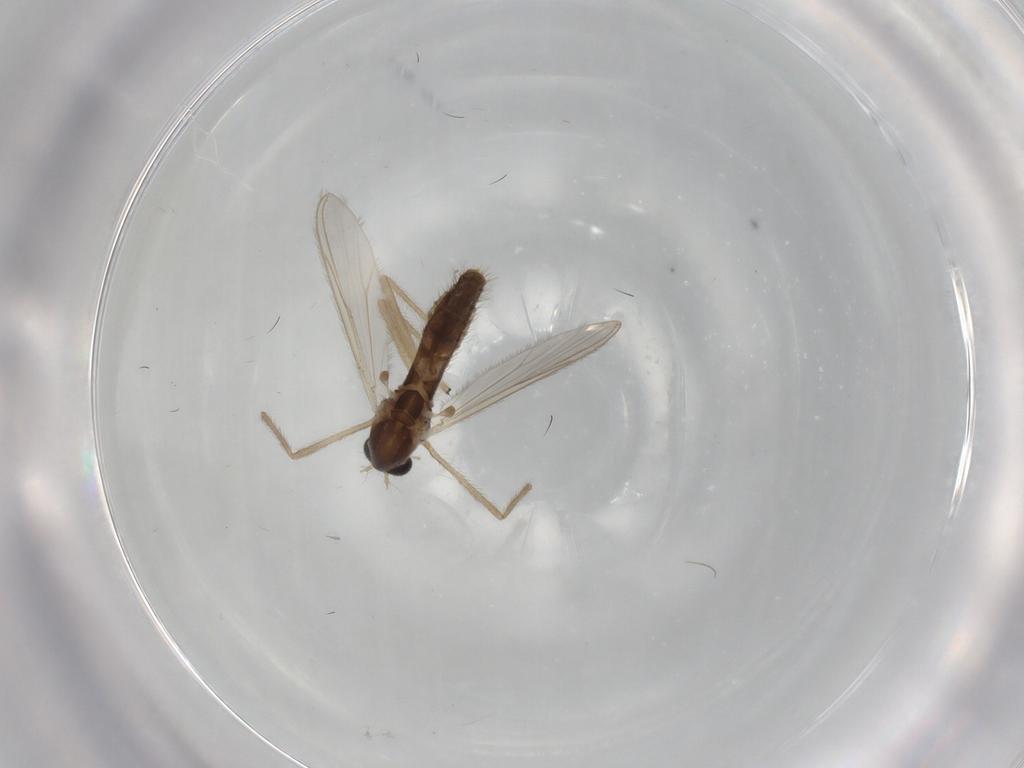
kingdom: Animalia
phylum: Arthropoda
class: Insecta
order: Diptera
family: Chironomidae
